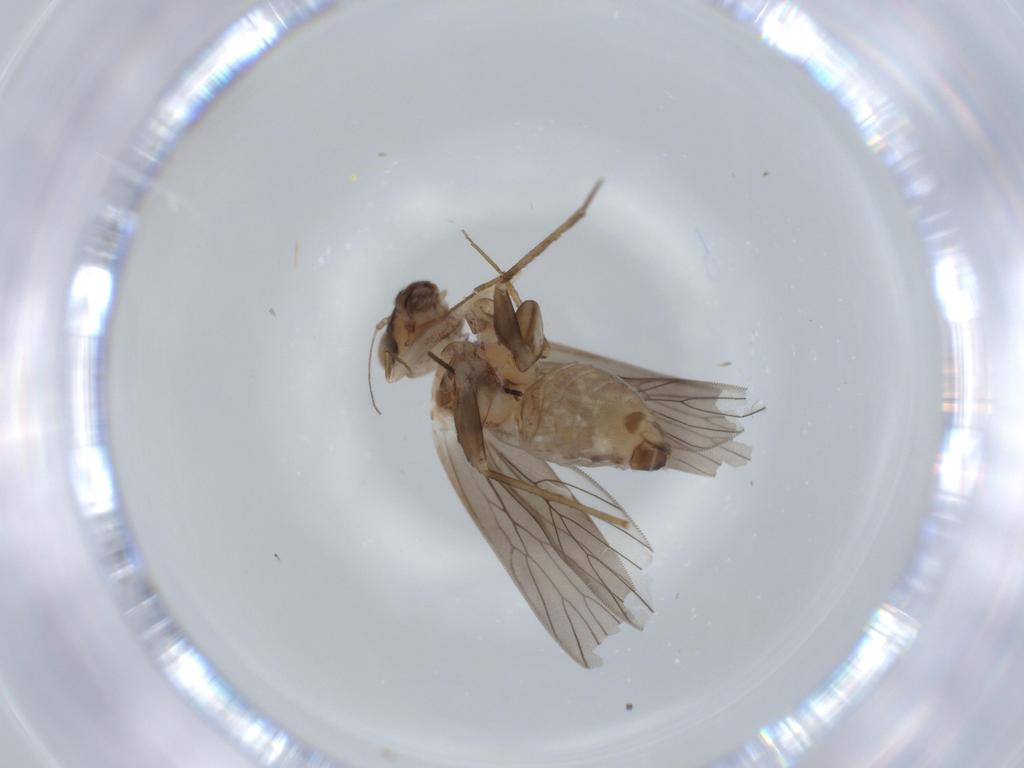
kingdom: Animalia
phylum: Arthropoda
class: Insecta
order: Psocodea
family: Lepidopsocidae
